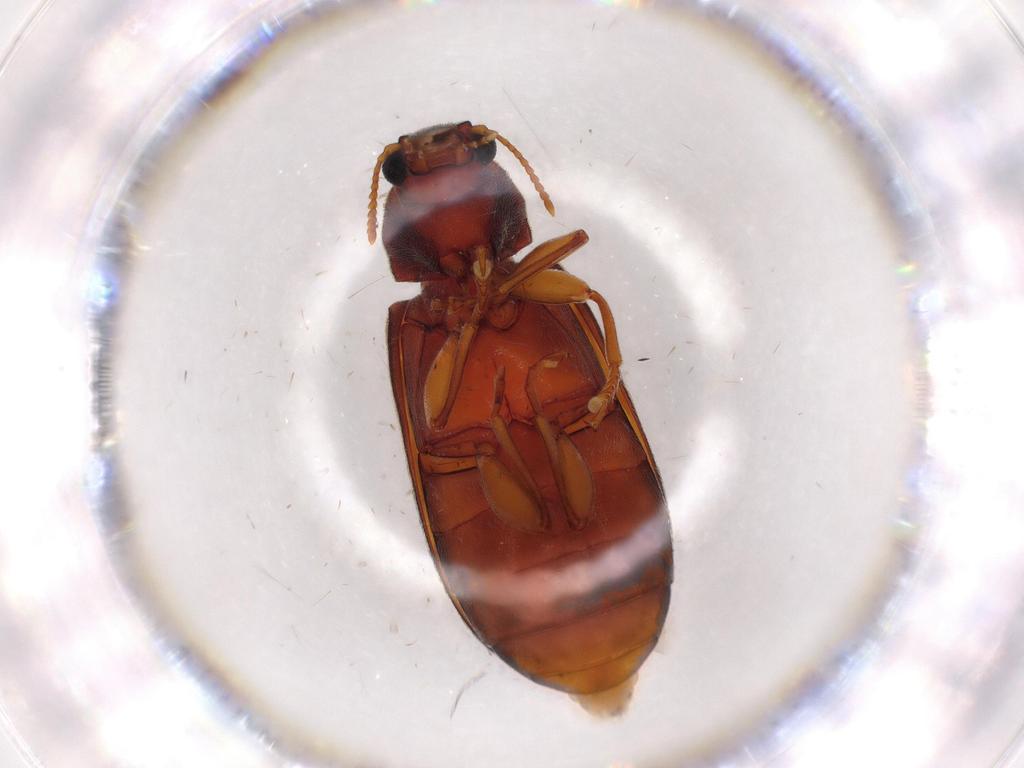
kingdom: Animalia
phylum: Arthropoda
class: Insecta
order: Coleoptera
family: Mycteridae
